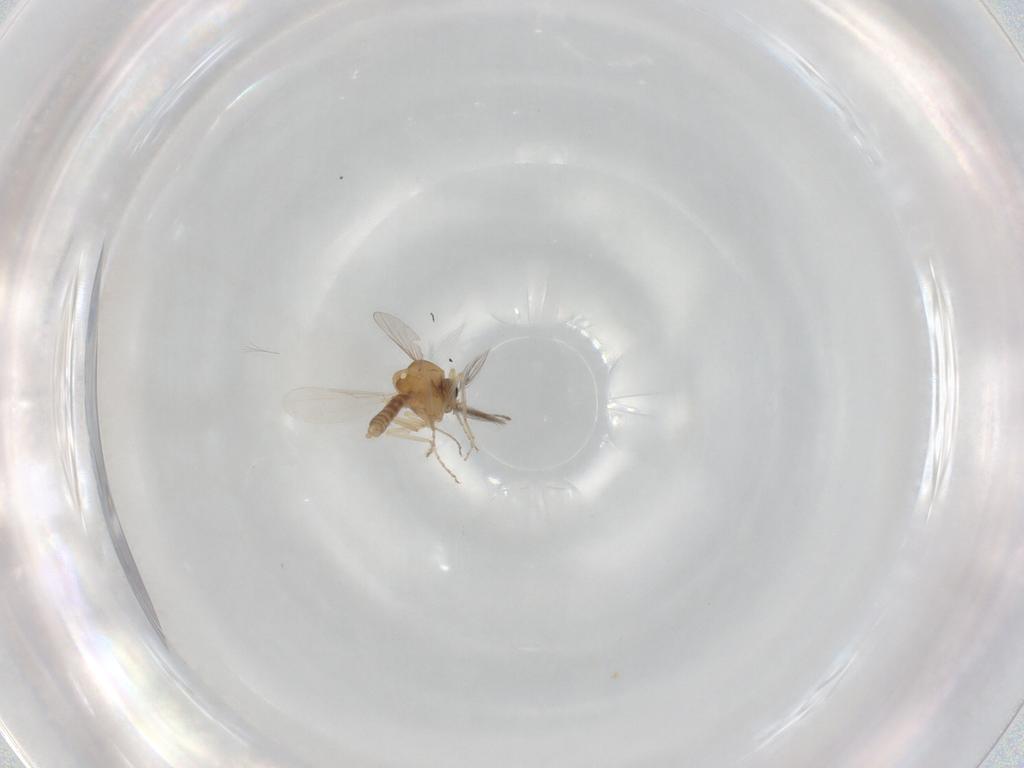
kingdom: Animalia
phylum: Arthropoda
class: Insecta
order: Diptera
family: Ceratopogonidae
